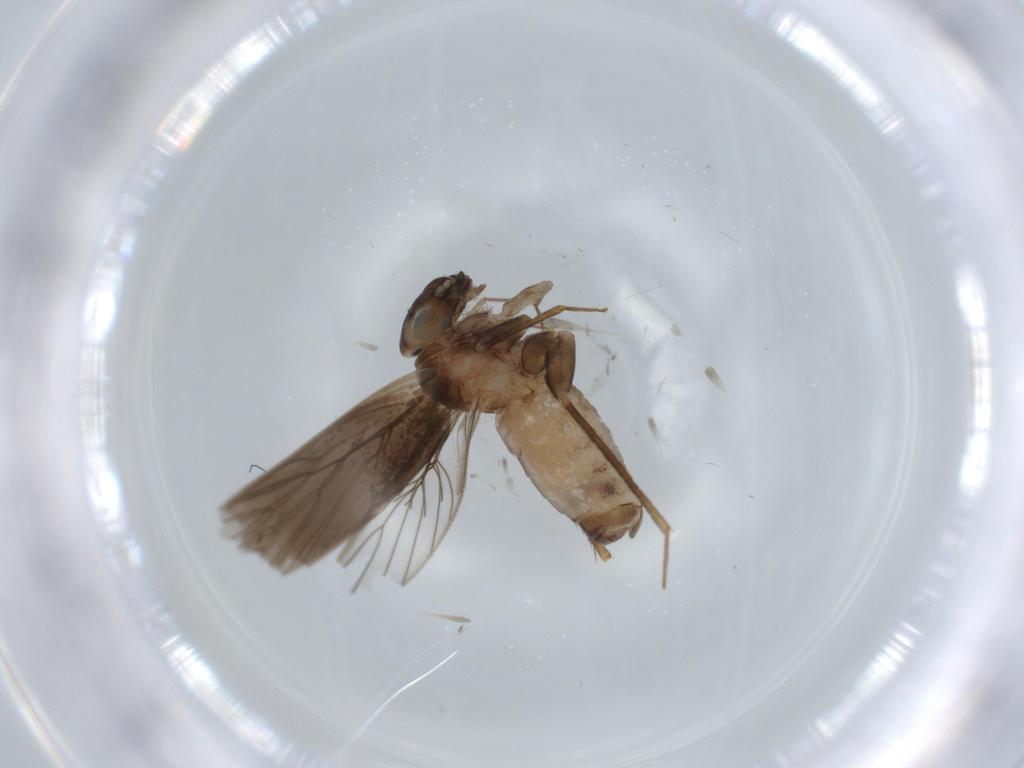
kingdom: Animalia
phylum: Arthropoda
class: Insecta
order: Psocodea
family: Lepidopsocidae
